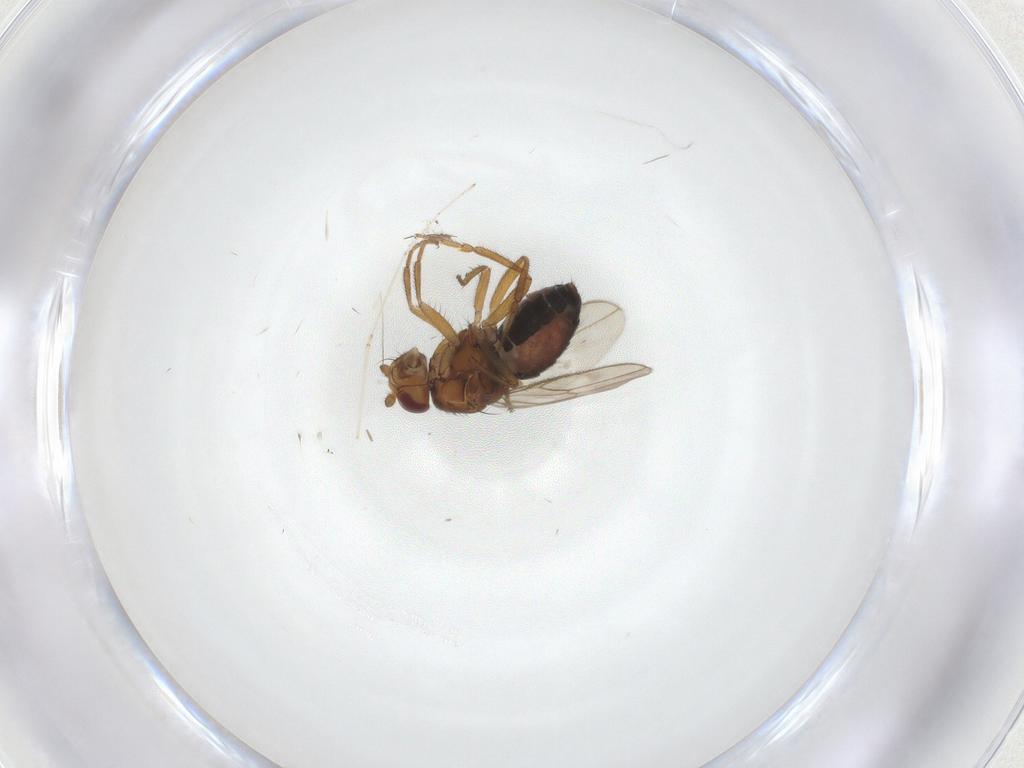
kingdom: Animalia
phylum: Arthropoda
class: Insecta
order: Diptera
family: Sphaeroceridae
